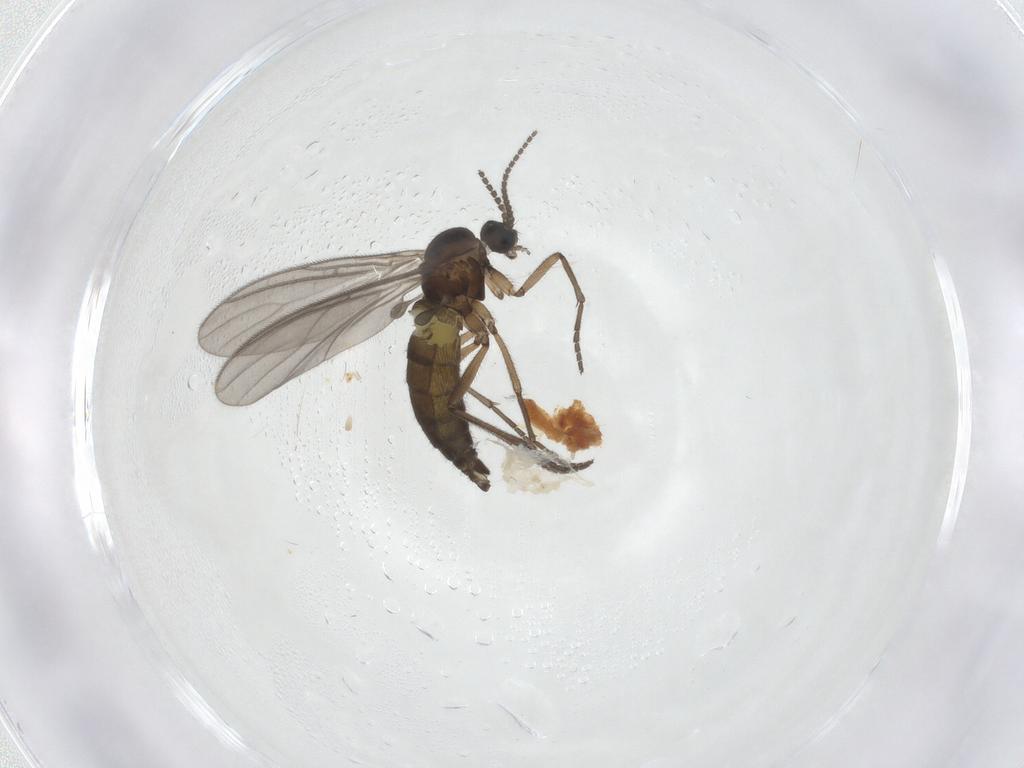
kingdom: Animalia
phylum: Arthropoda
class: Insecta
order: Diptera
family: Sciaridae
